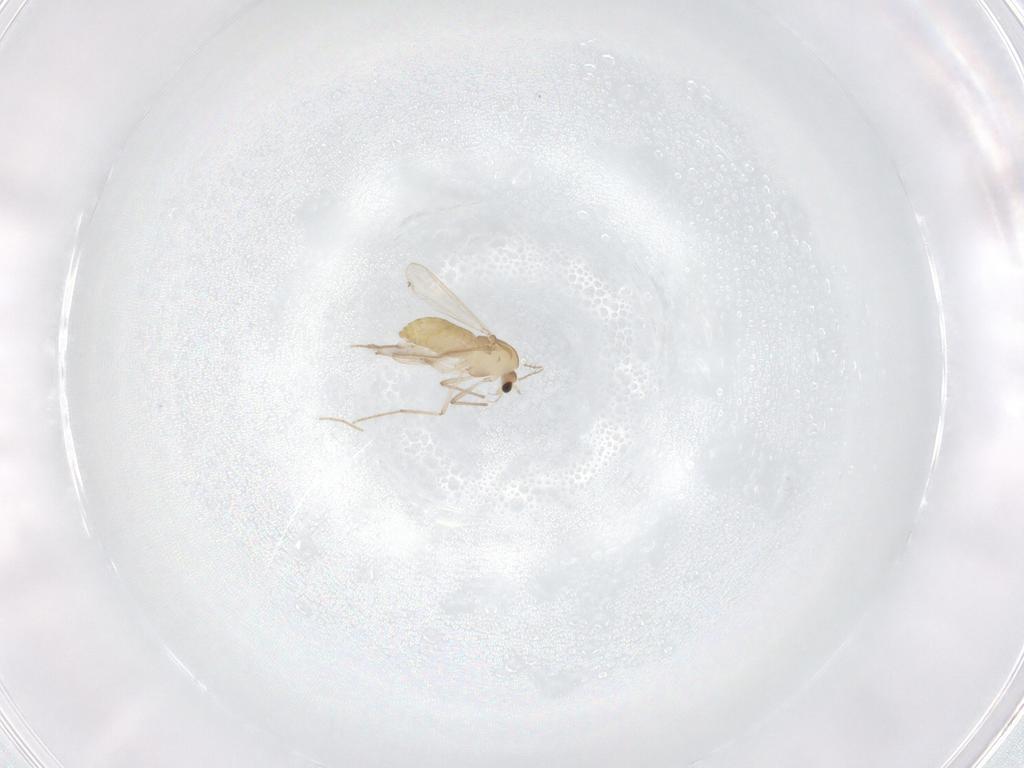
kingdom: Animalia
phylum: Arthropoda
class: Insecta
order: Diptera
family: Chironomidae
